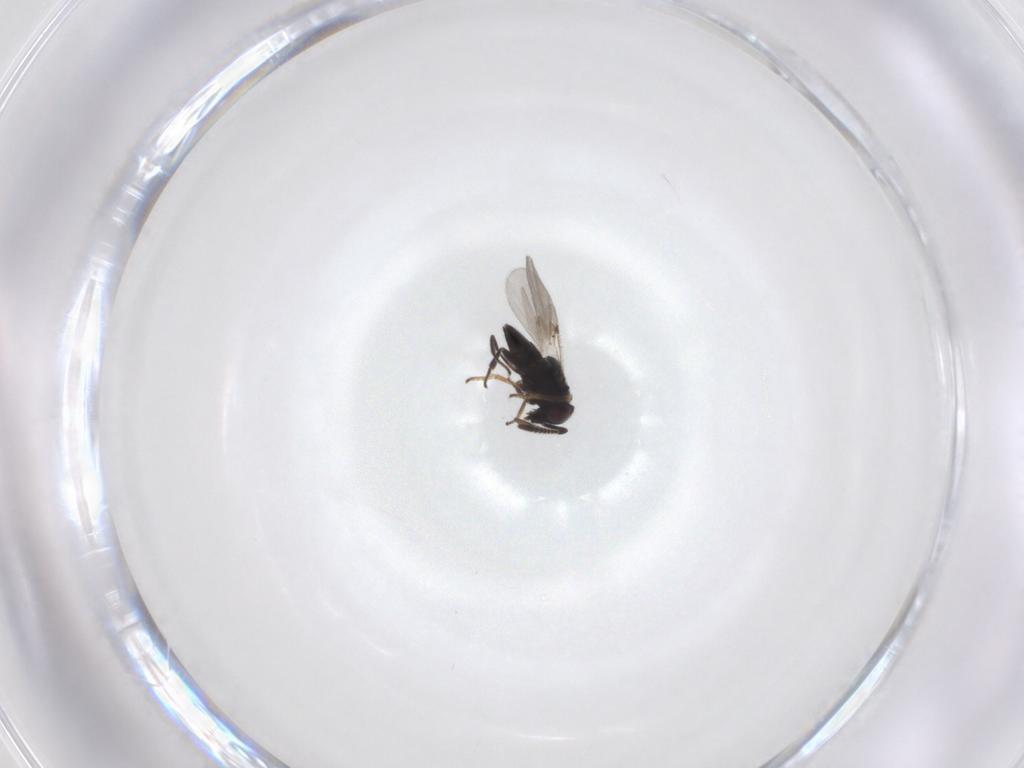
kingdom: Animalia
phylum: Arthropoda
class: Insecta
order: Hymenoptera
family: Encyrtidae
